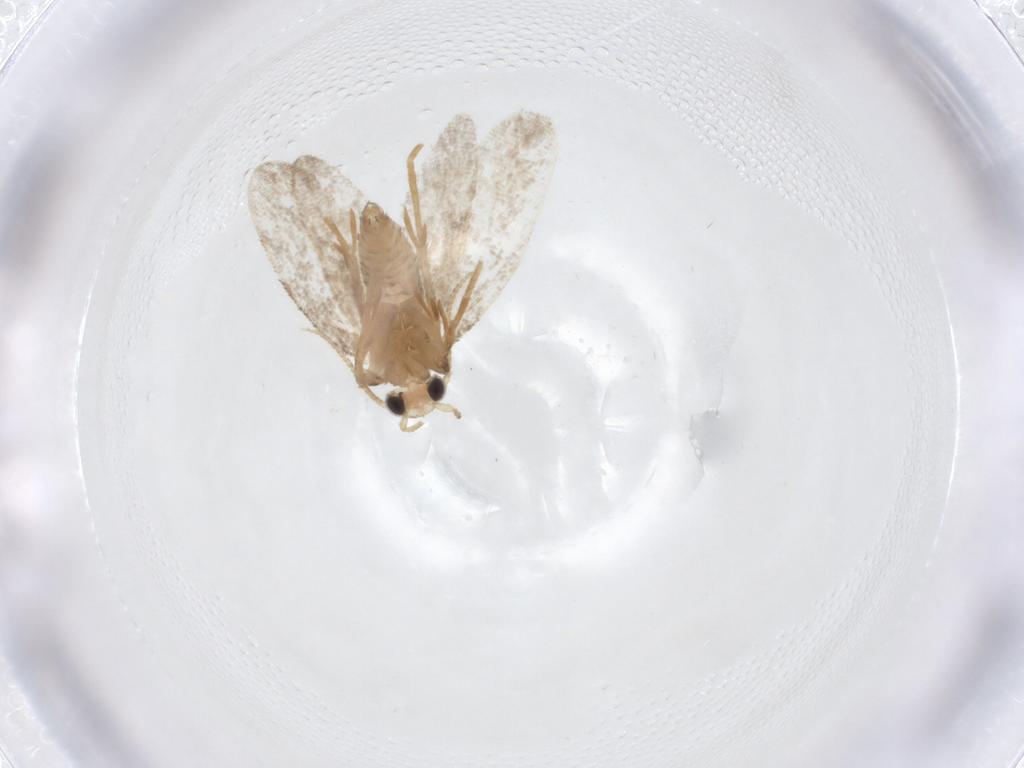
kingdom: Animalia
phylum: Arthropoda
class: Insecta
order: Lepidoptera
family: Psychidae
